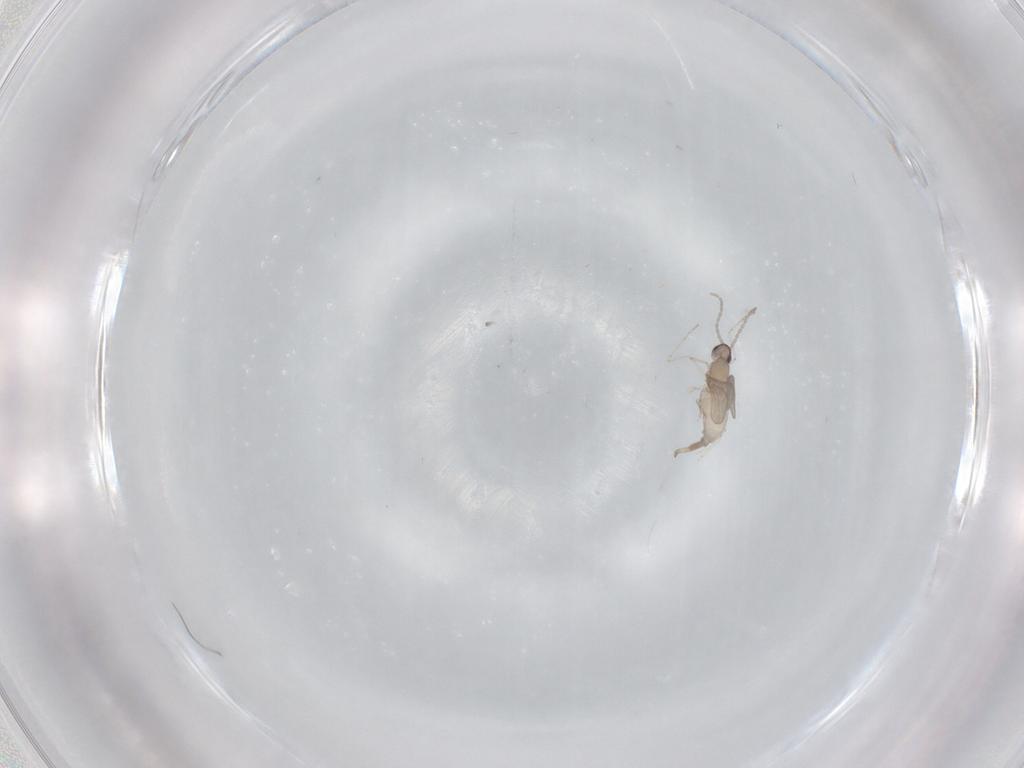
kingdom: Animalia
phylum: Arthropoda
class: Insecta
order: Diptera
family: Cecidomyiidae
